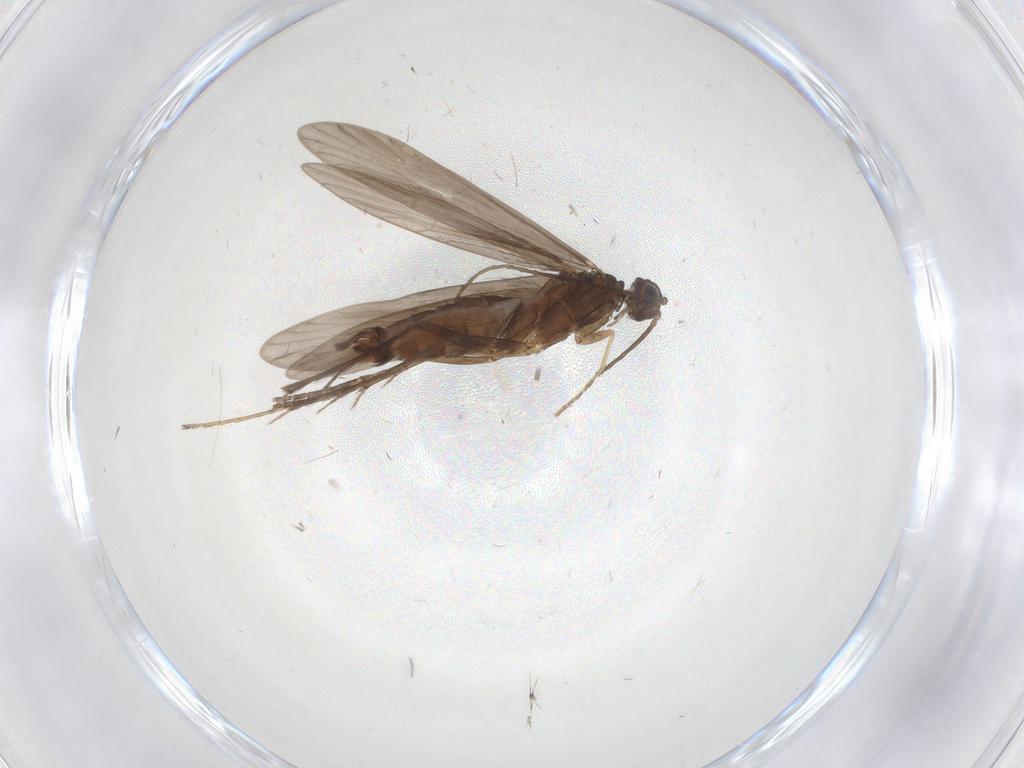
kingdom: Animalia
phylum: Arthropoda
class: Insecta
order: Trichoptera
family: Xiphocentronidae
